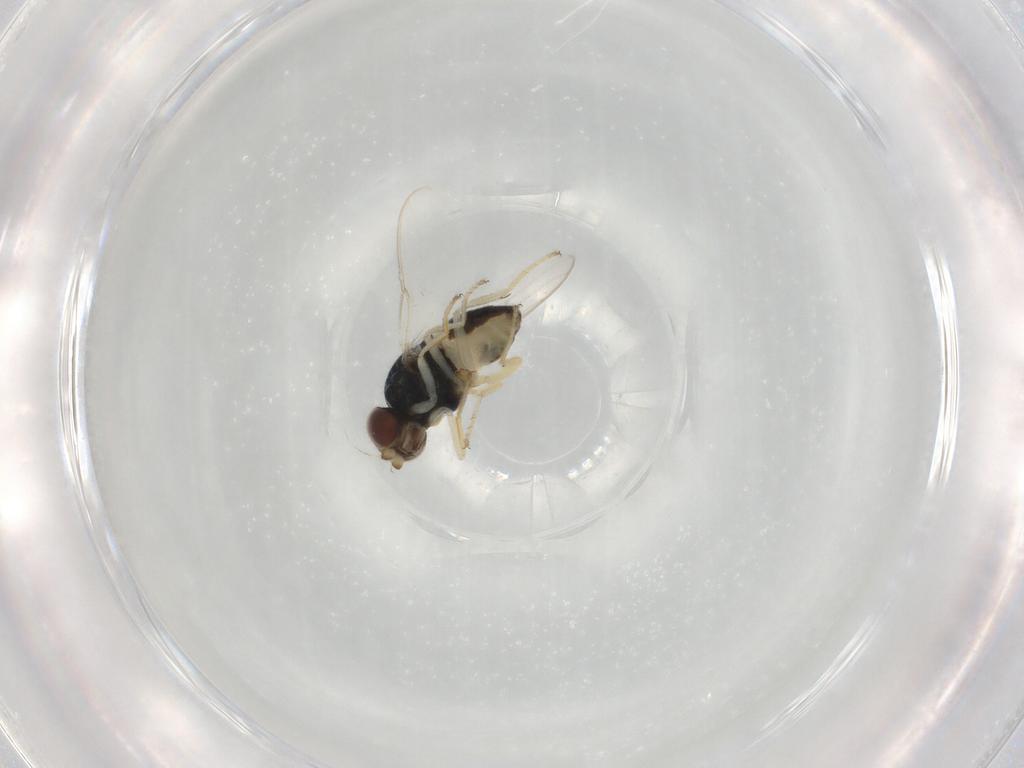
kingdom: Animalia
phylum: Arthropoda
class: Insecta
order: Diptera
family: Chloropidae
